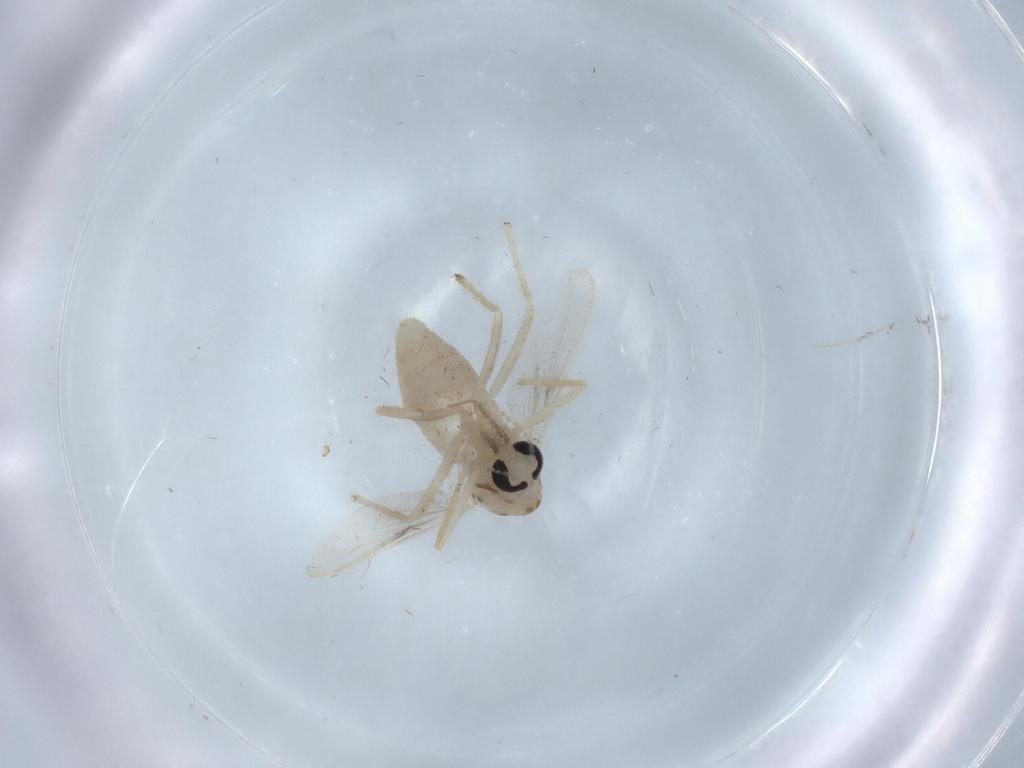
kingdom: Animalia
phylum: Arthropoda
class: Insecta
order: Diptera
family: Chironomidae
